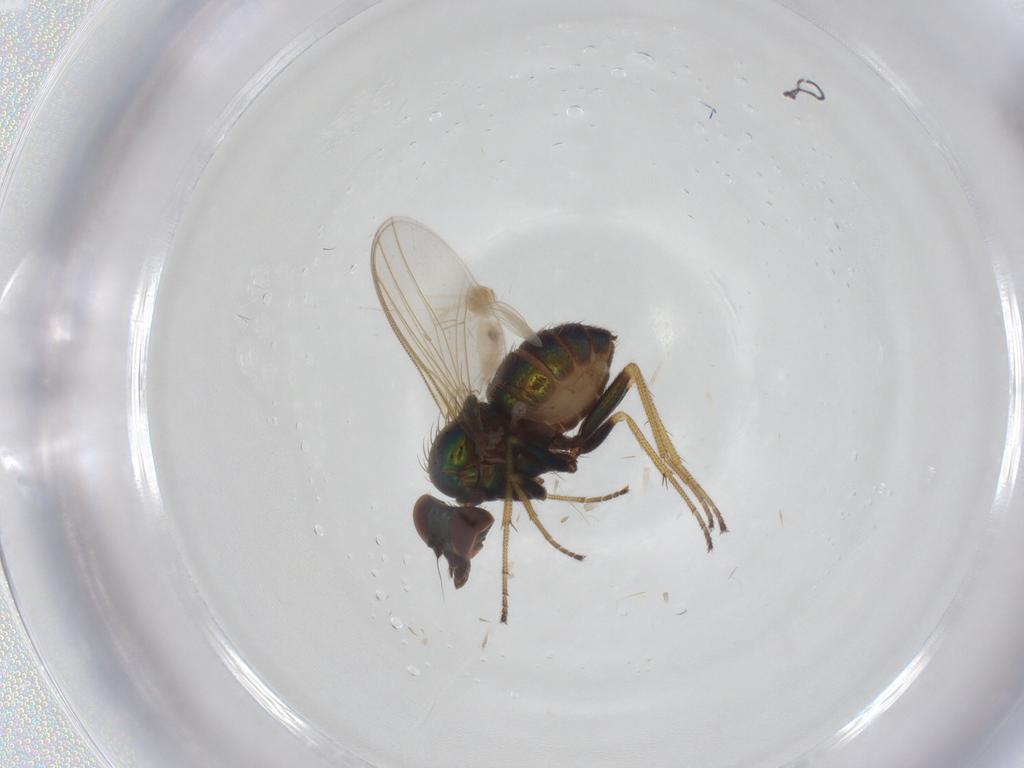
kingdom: Animalia
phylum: Arthropoda
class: Insecta
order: Diptera
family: Dolichopodidae
